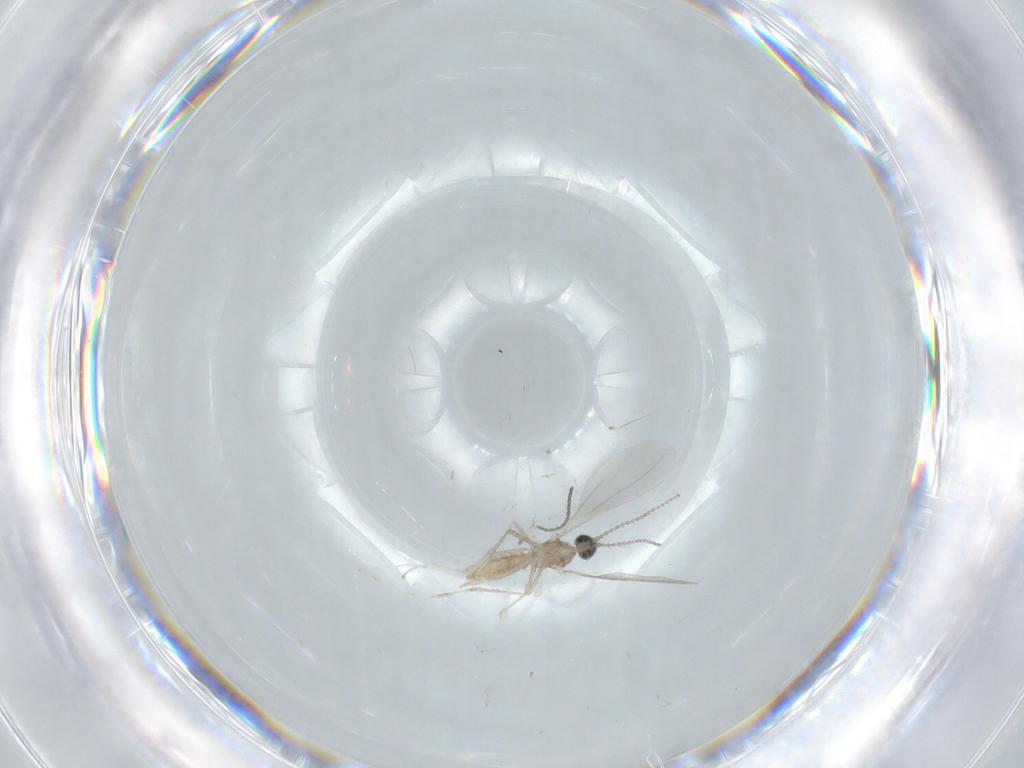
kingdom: Animalia
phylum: Arthropoda
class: Insecta
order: Diptera
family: Cecidomyiidae
